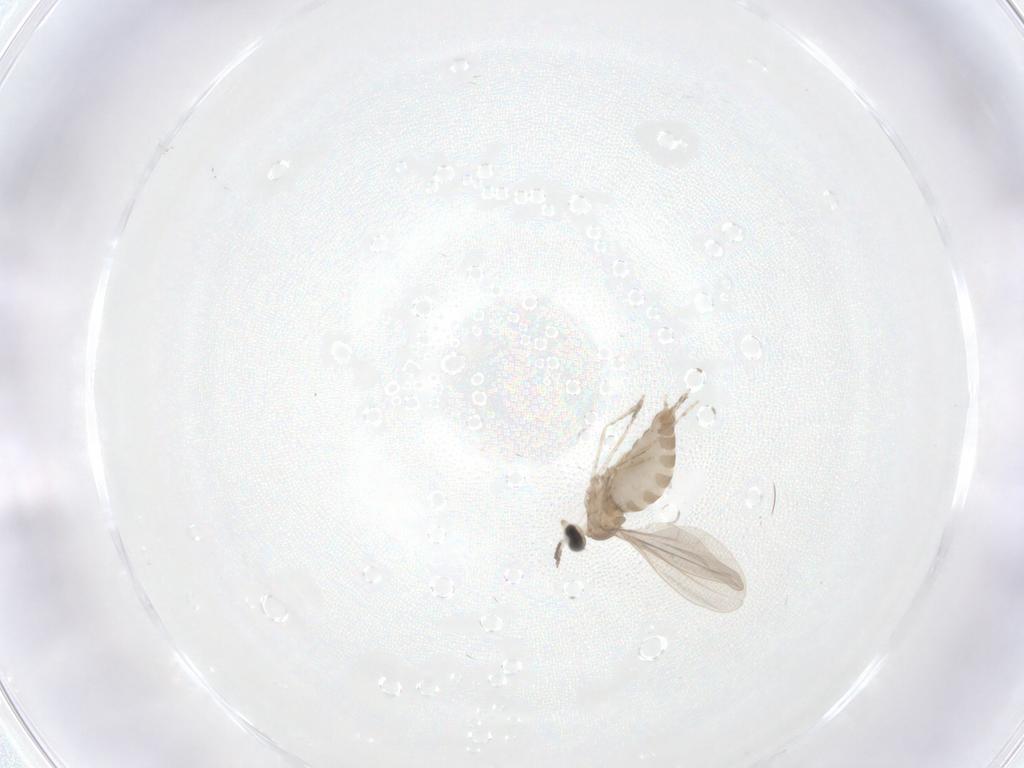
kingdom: Animalia
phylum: Arthropoda
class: Insecta
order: Diptera
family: Cecidomyiidae
